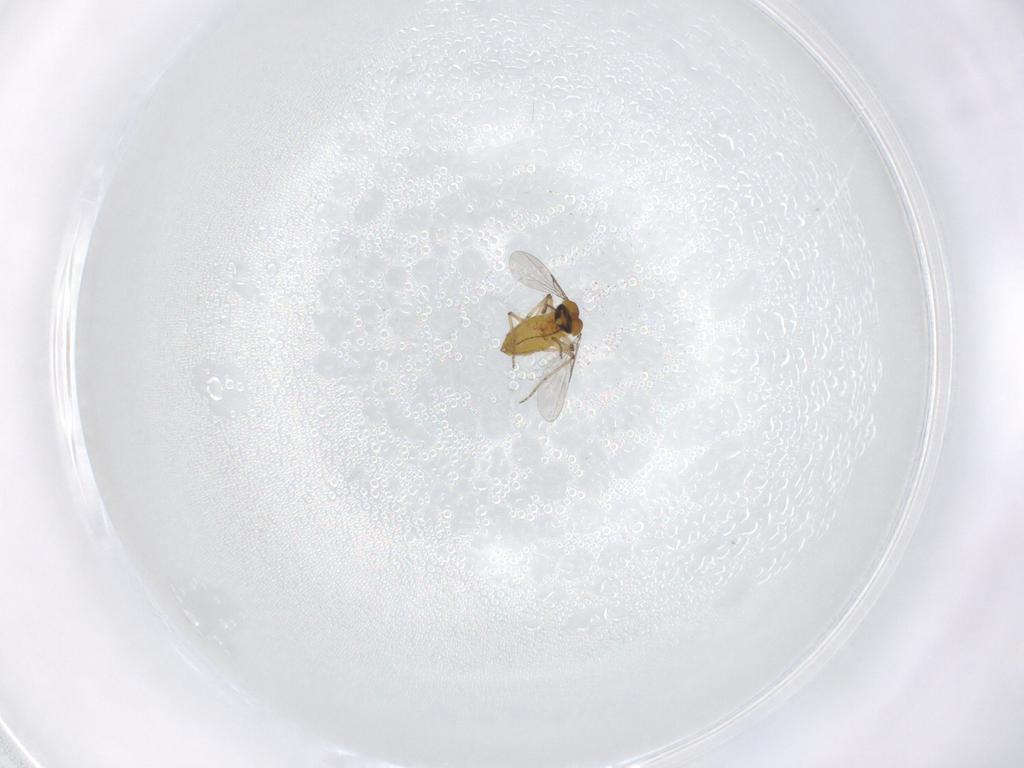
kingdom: Animalia
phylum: Arthropoda
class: Insecta
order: Diptera
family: Ceratopogonidae
